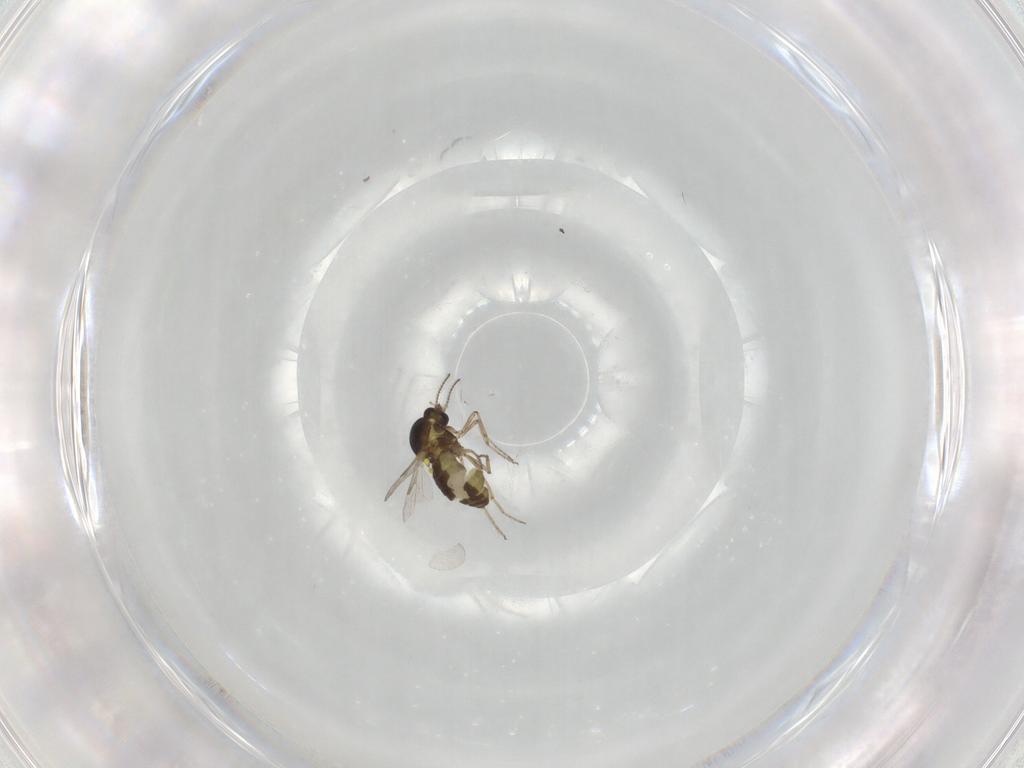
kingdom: Animalia
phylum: Arthropoda
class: Insecta
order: Diptera
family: Ceratopogonidae
